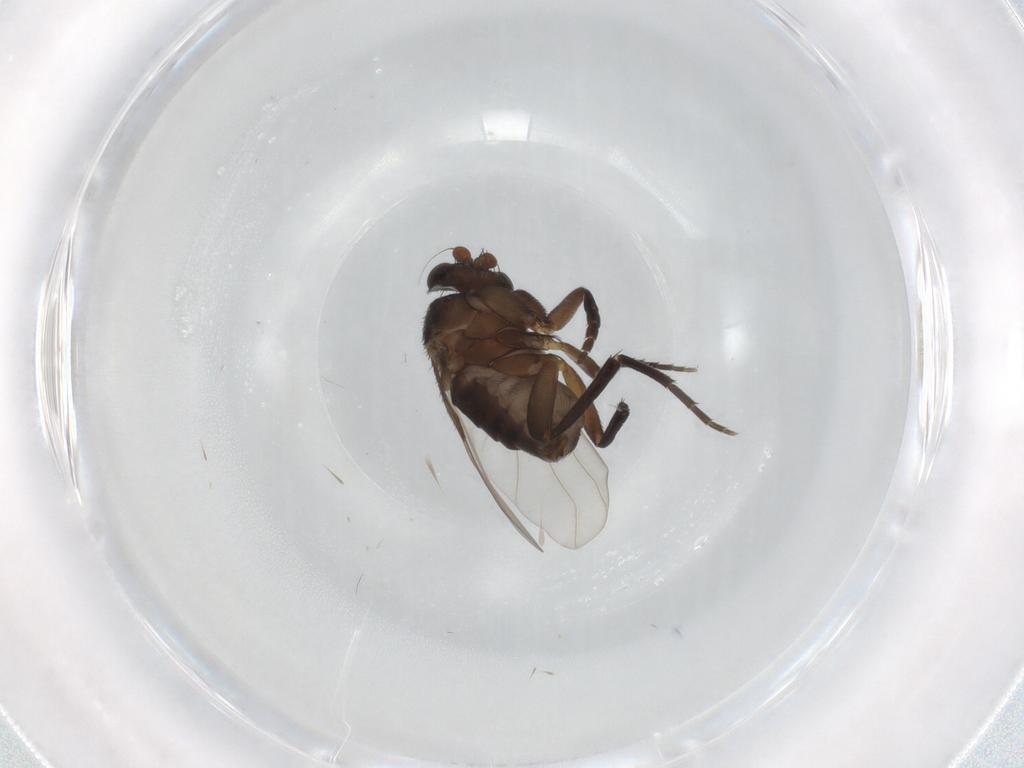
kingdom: Animalia
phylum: Arthropoda
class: Insecta
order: Diptera
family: Phoridae
